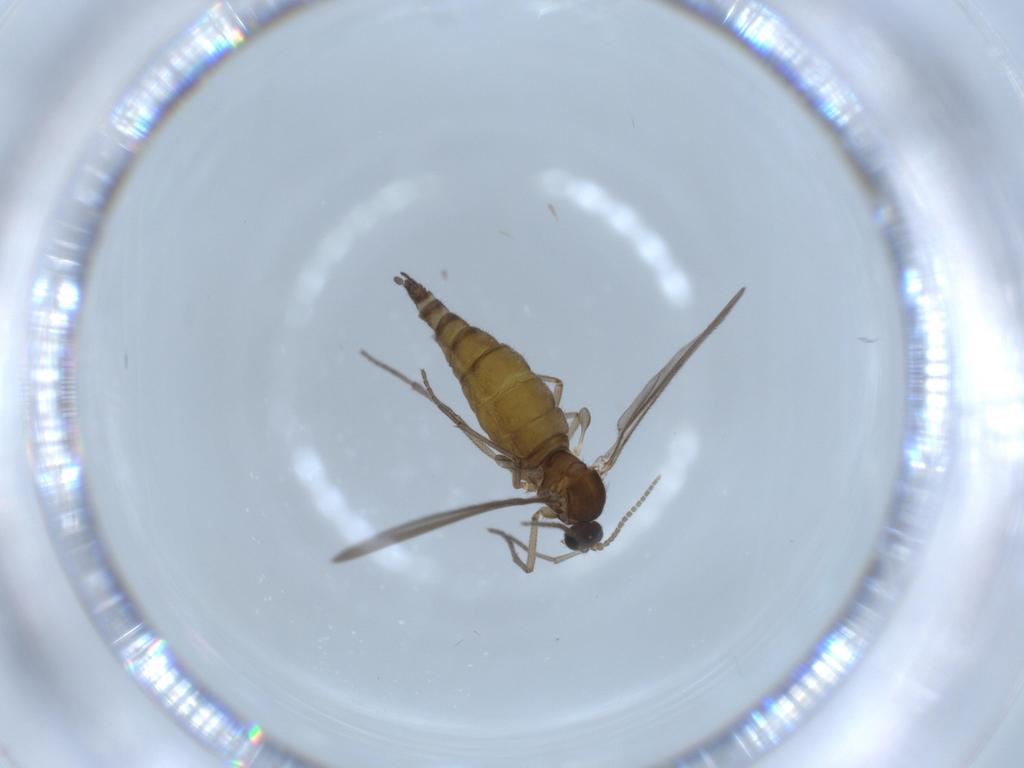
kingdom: Animalia
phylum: Arthropoda
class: Insecta
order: Diptera
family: Sciaridae
